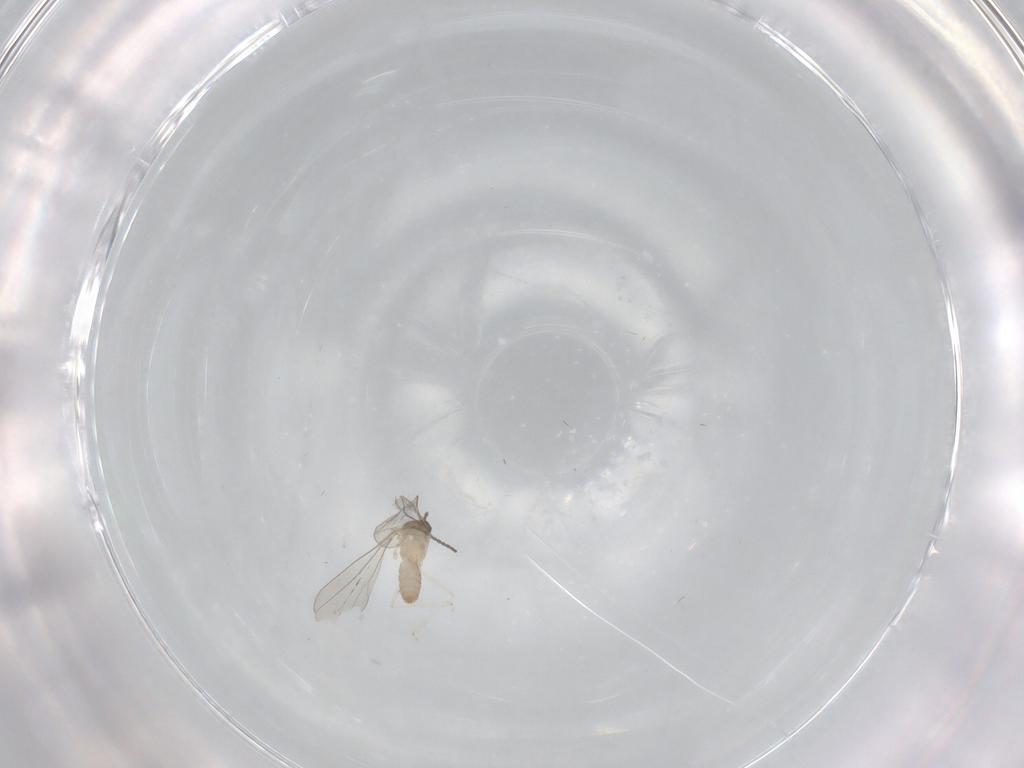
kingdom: Animalia
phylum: Arthropoda
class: Insecta
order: Diptera
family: Cecidomyiidae
